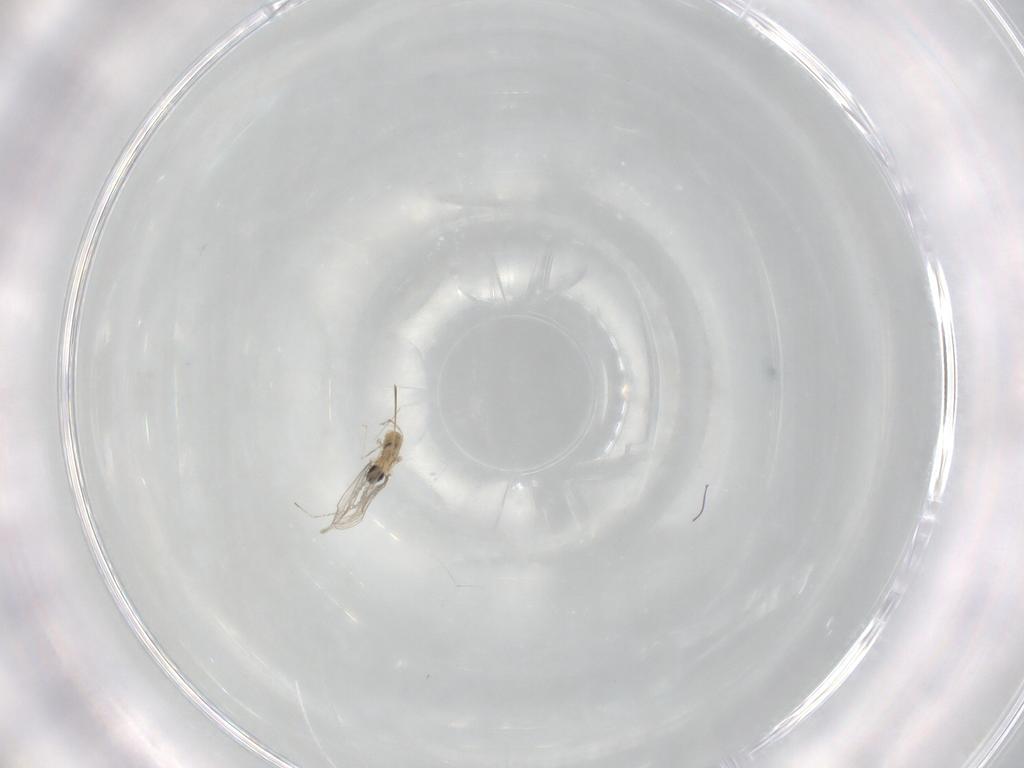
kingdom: Animalia
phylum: Arthropoda
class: Insecta
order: Diptera
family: Cecidomyiidae
